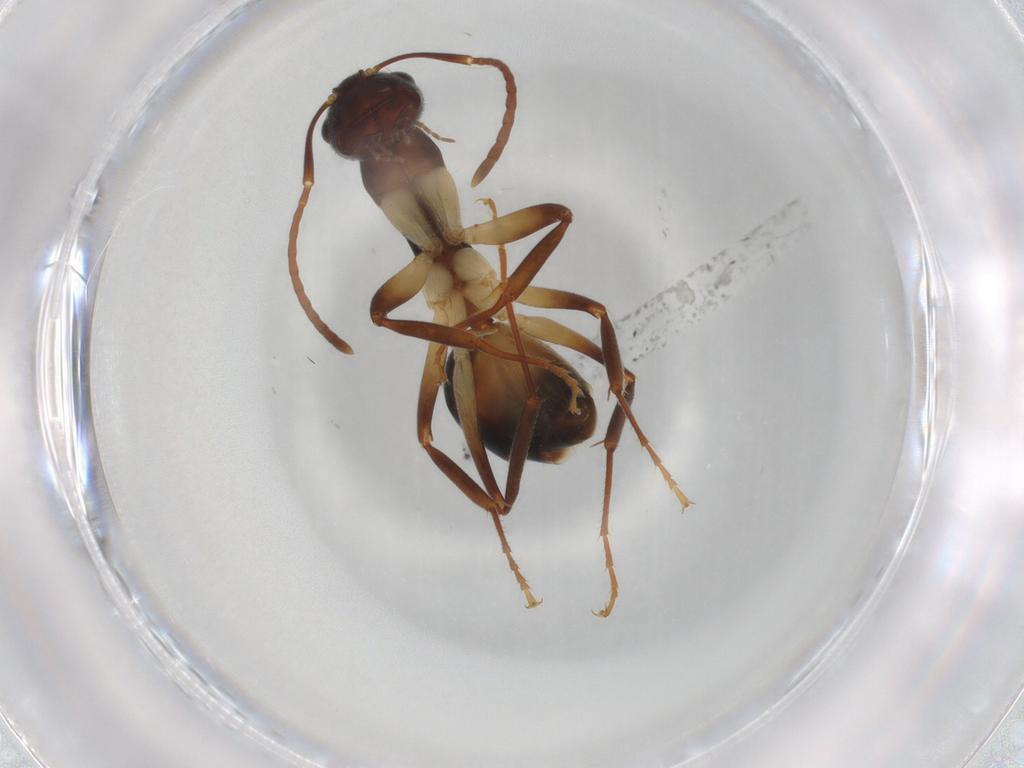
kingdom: Animalia
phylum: Arthropoda
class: Insecta
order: Hymenoptera
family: Formicidae
